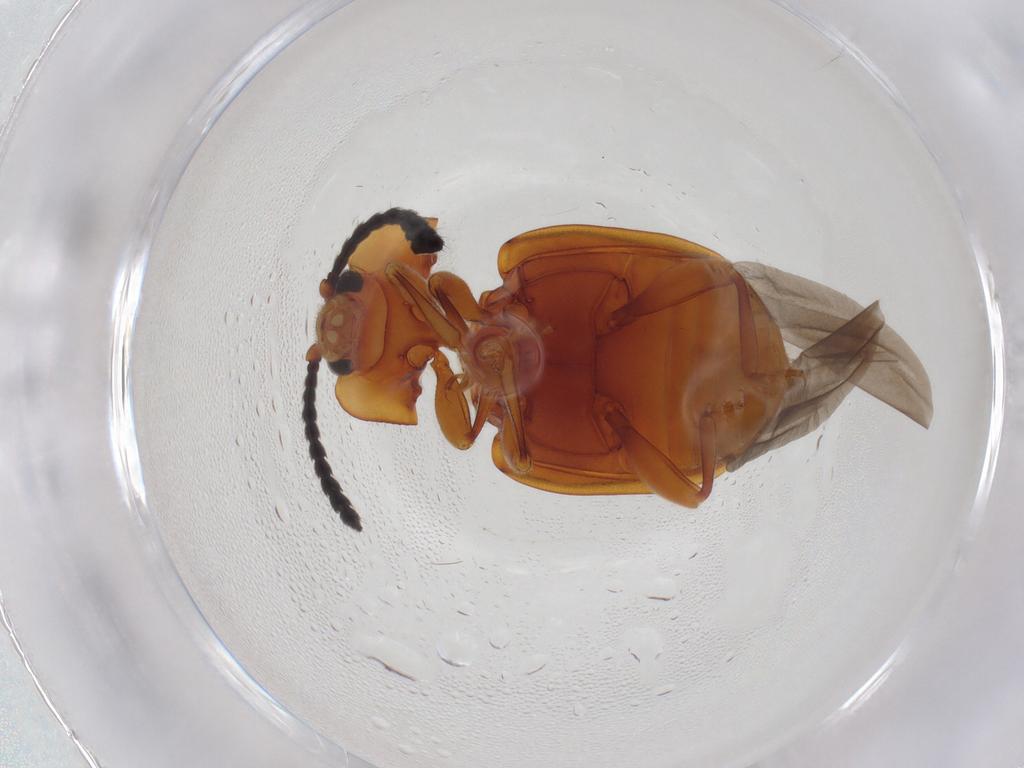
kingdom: Animalia
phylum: Arthropoda
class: Insecta
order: Coleoptera
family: Endomychidae
